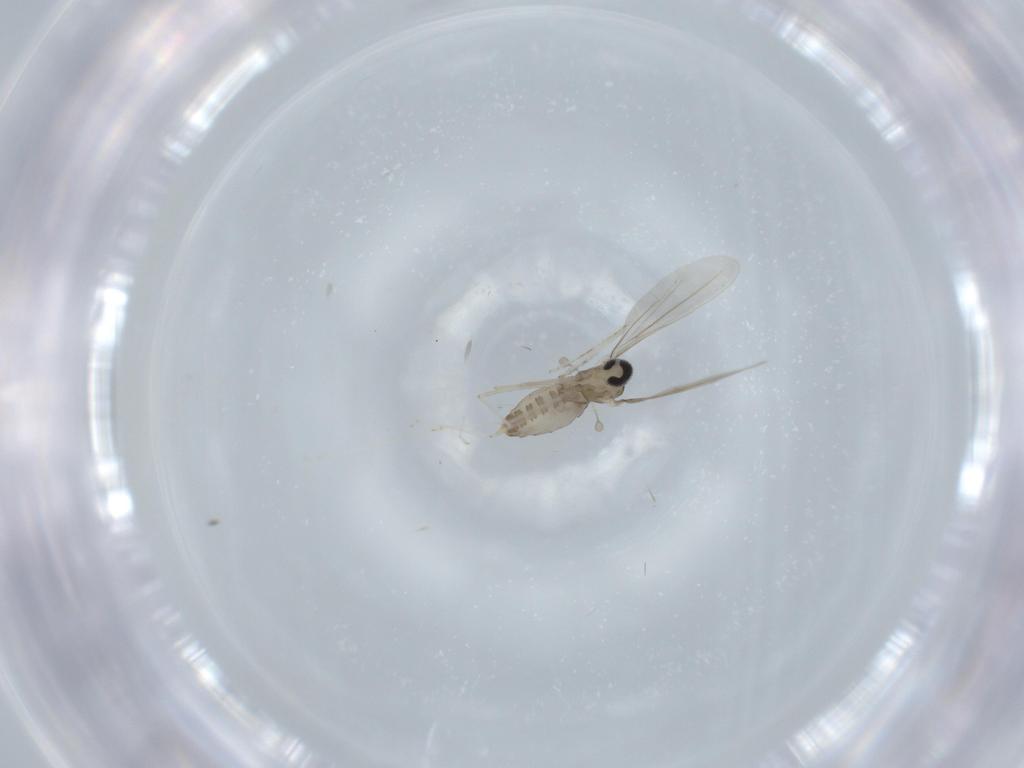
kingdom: Animalia
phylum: Arthropoda
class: Insecta
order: Diptera
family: Cecidomyiidae
